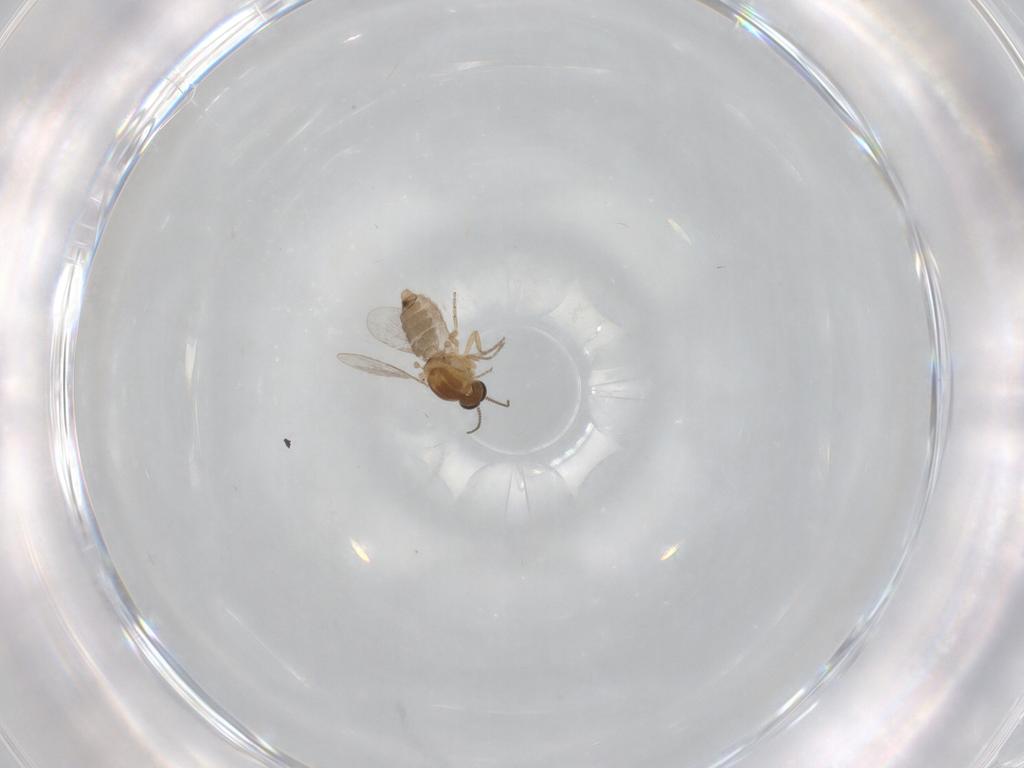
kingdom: Animalia
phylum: Arthropoda
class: Insecta
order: Diptera
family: Ceratopogonidae
